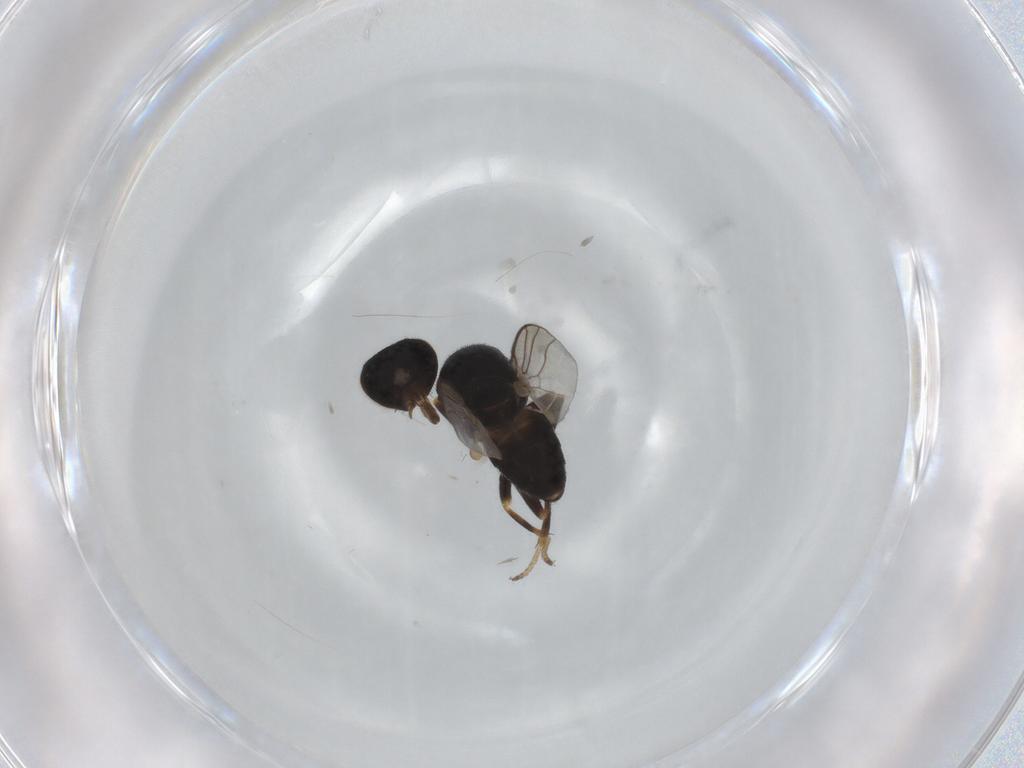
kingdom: Animalia
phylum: Arthropoda
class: Insecta
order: Diptera
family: Chloropidae
